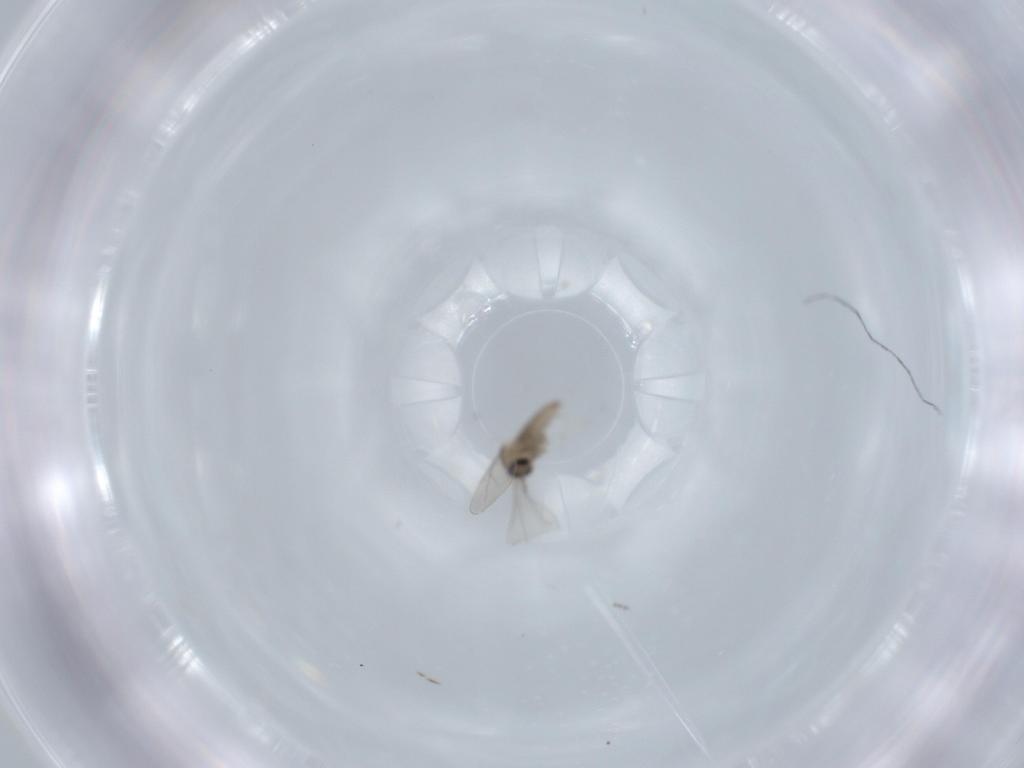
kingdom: Animalia
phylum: Arthropoda
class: Insecta
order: Diptera
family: Cecidomyiidae
